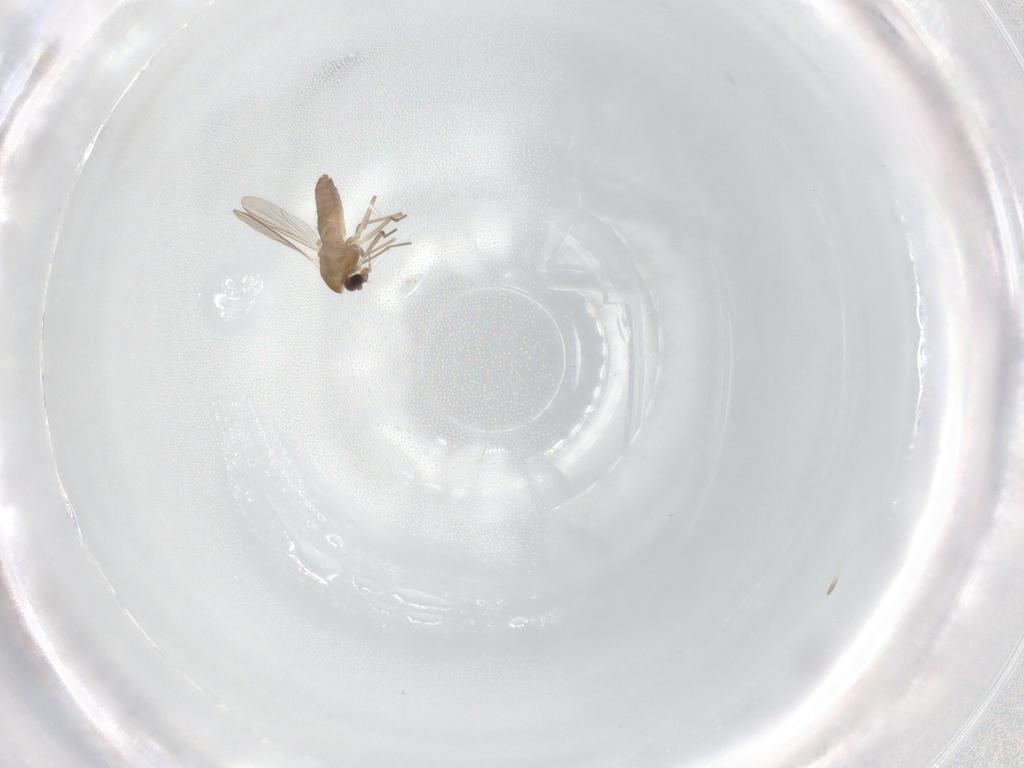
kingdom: Animalia
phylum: Arthropoda
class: Insecta
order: Diptera
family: Chironomidae
